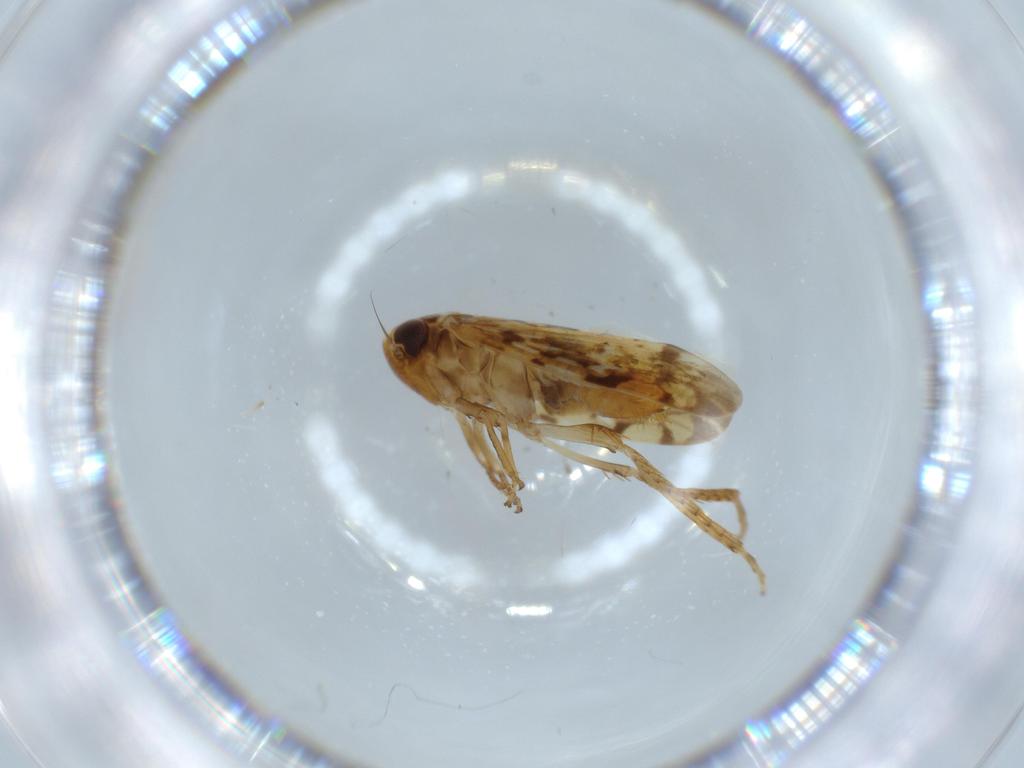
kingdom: Animalia
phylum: Arthropoda
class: Insecta
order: Hemiptera
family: Cicadellidae
